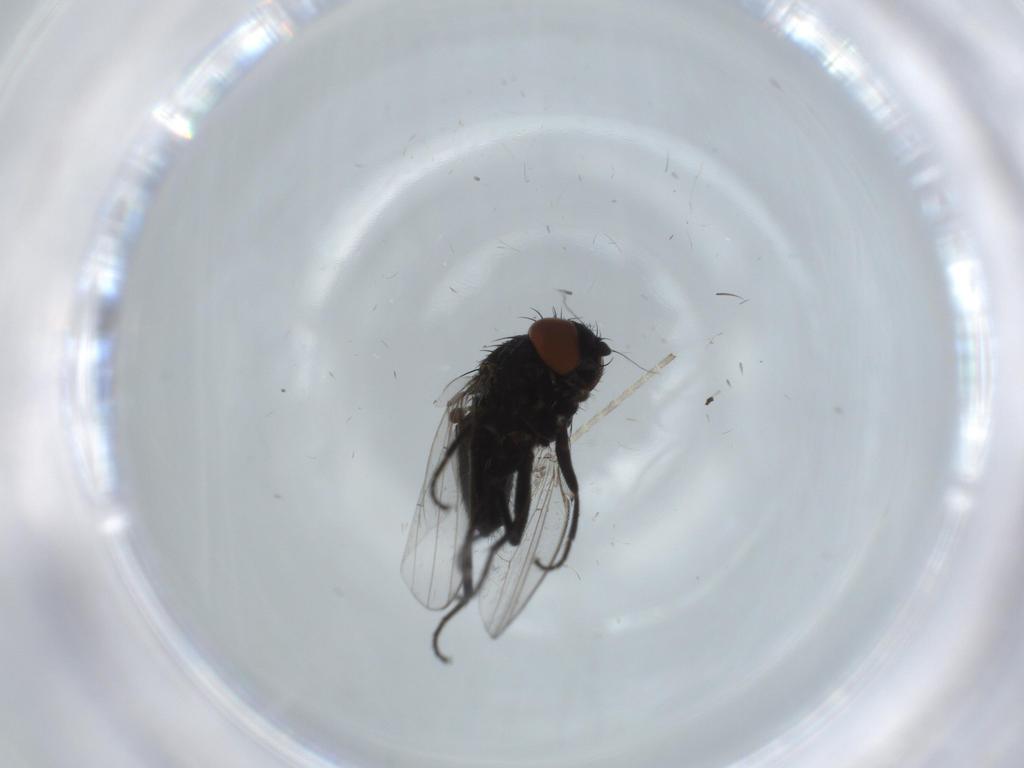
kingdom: Animalia
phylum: Arthropoda
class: Insecta
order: Diptera
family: Milichiidae
